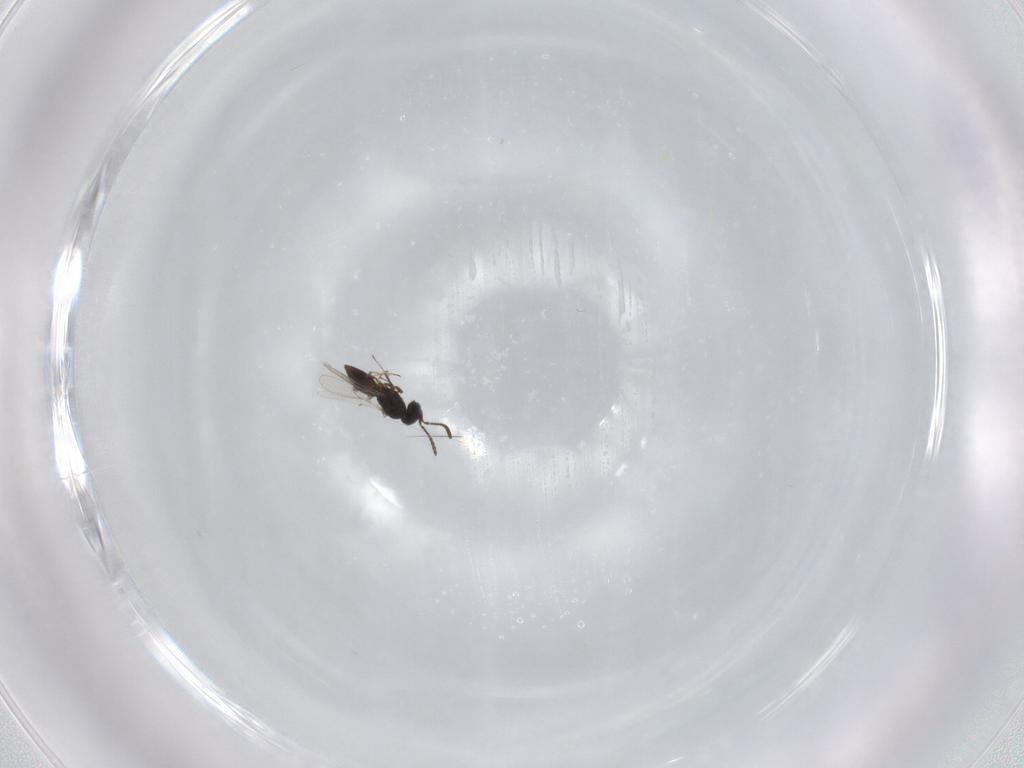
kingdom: Animalia
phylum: Arthropoda
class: Insecta
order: Hymenoptera
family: Scelionidae
